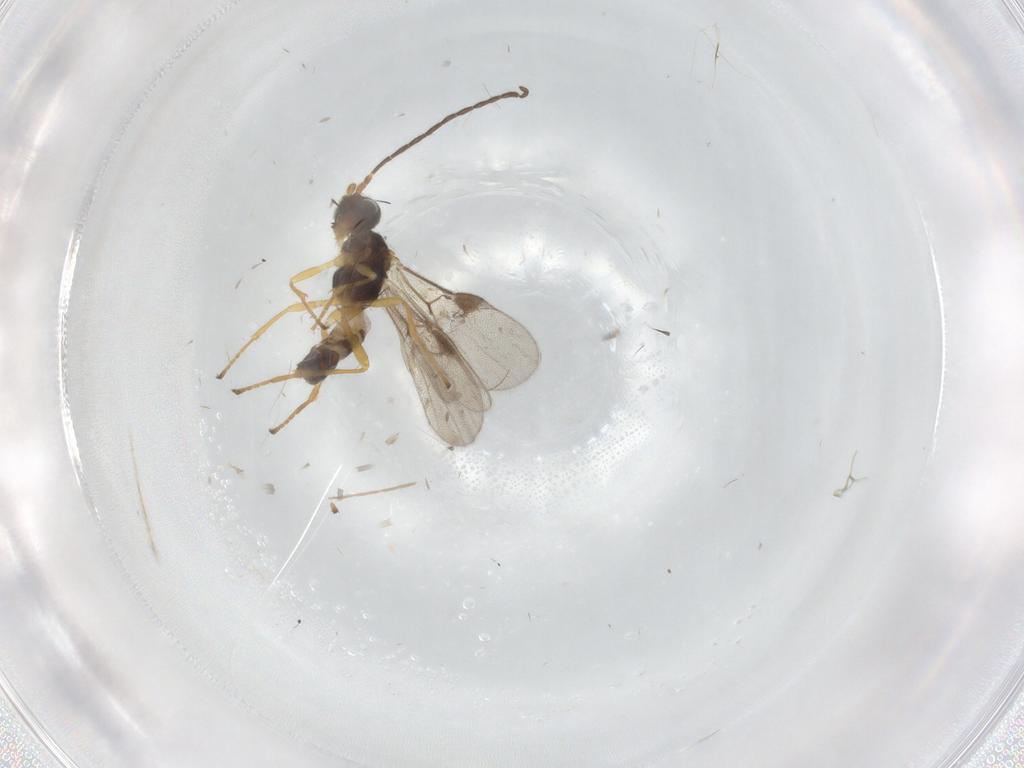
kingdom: Animalia
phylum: Arthropoda
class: Insecta
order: Hymenoptera
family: Braconidae
